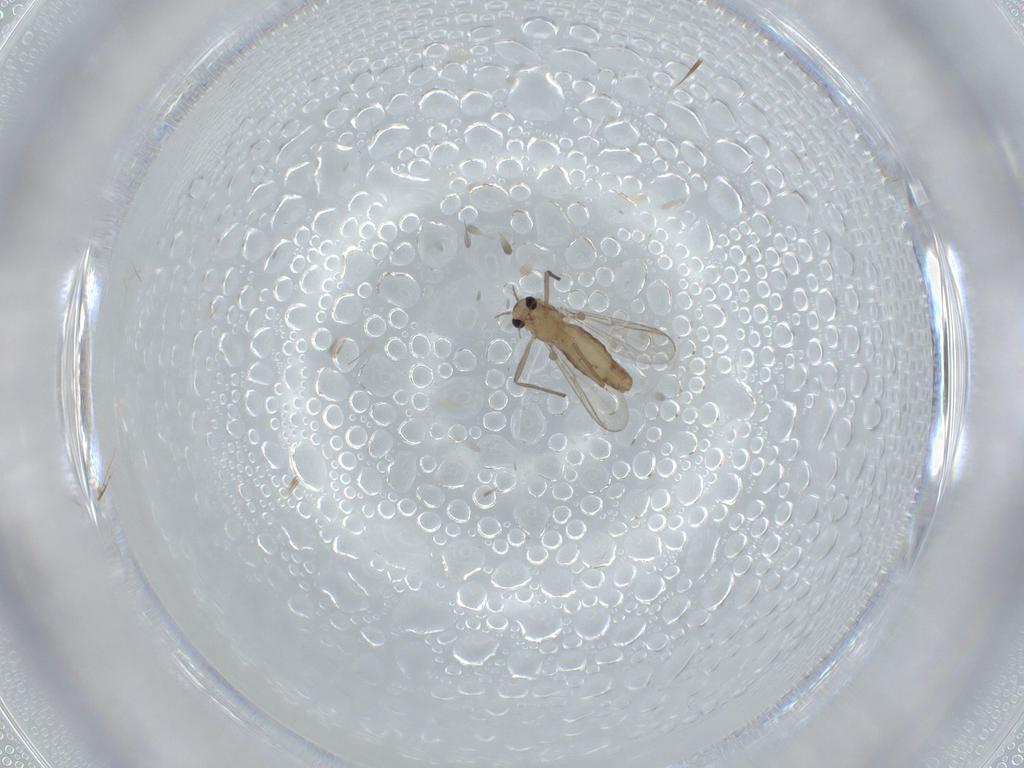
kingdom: Animalia
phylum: Arthropoda
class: Insecta
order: Diptera
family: Chironomidae
